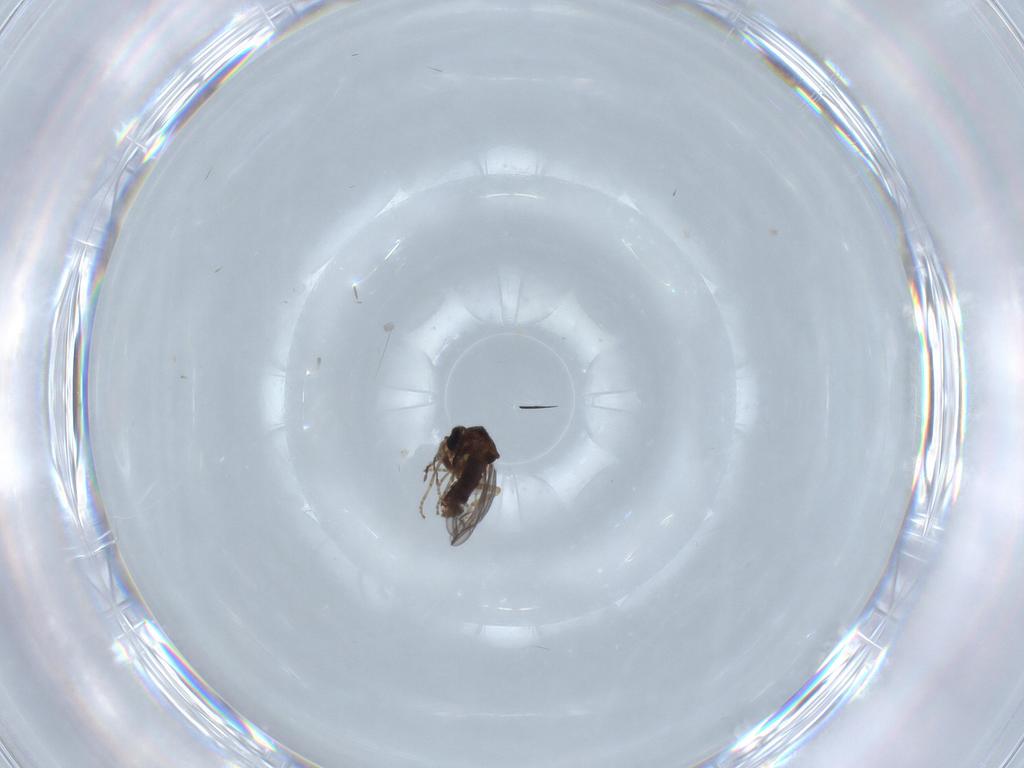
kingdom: Animalia
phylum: Arthropoda
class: Insecta
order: Diptera
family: Ceratopogonidae
